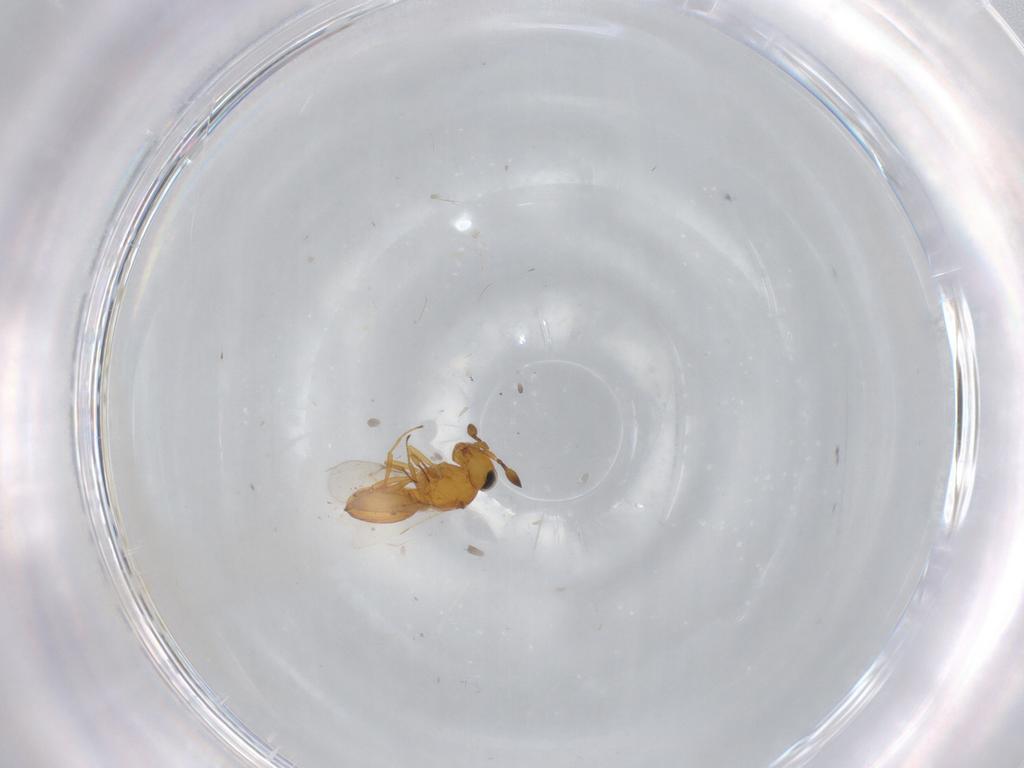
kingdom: Animalia
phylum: Arthropoda
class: Insecta
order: Hymenoptera
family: Scelionidae
